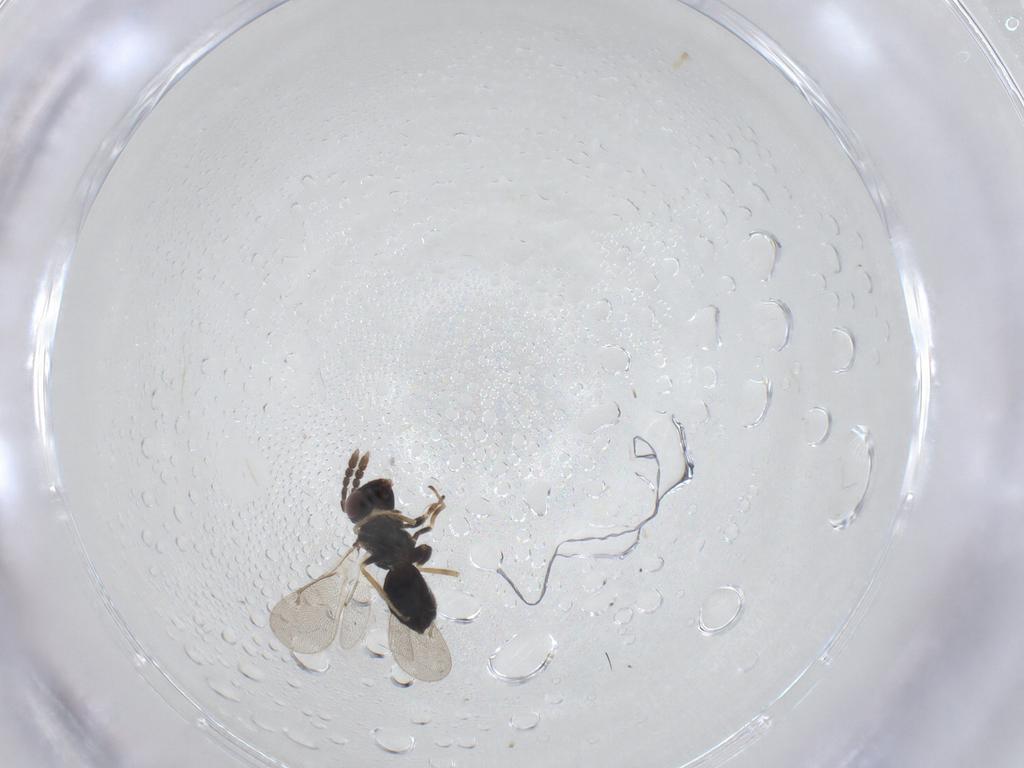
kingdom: Animalia
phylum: Arthropoda
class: Insecta
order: Hymenoptera
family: Eulophidae
